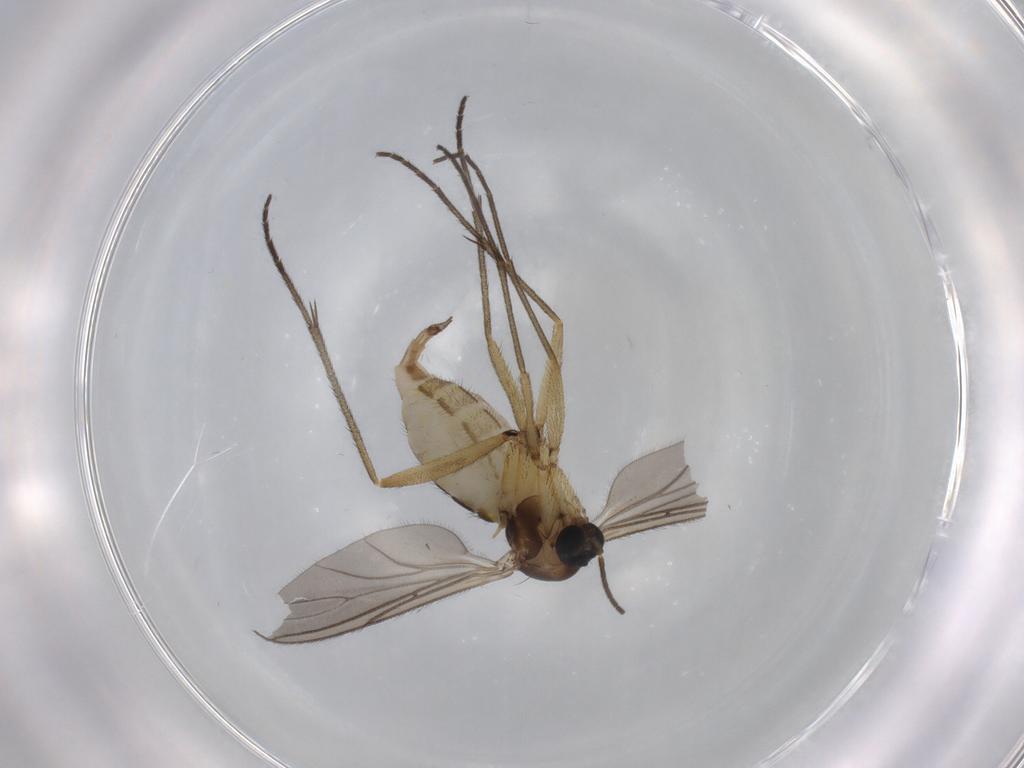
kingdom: Animalia
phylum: Arthropoda
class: Insecta
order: Diptera
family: Sciaridae
